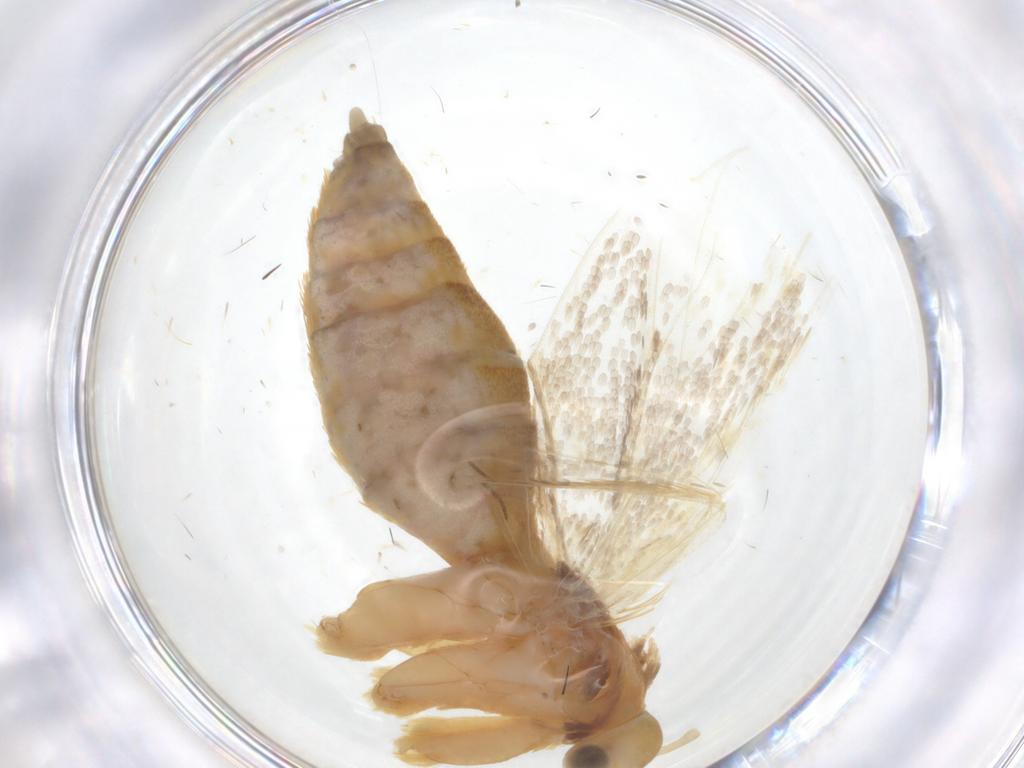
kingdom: Animalia
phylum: Arthropoda
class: Insecta
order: Lepidoptera
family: Lecithoceridae
